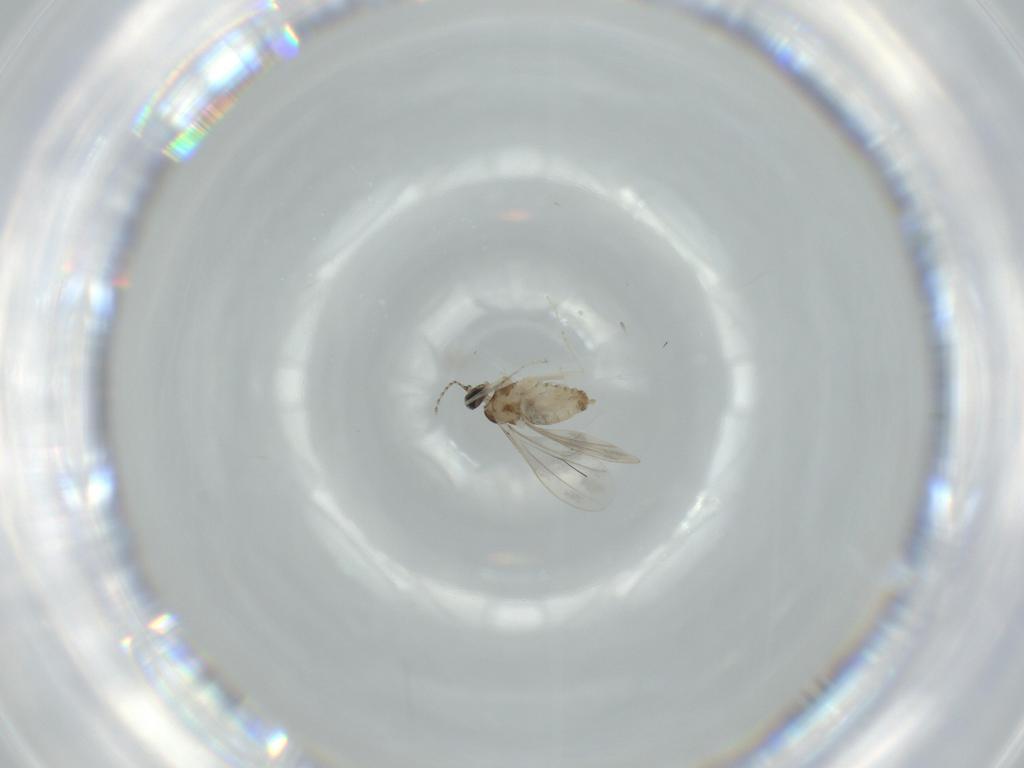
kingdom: Animalia
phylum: Arthropoda
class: Insecta
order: Diptera
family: Cecidomyiidae
